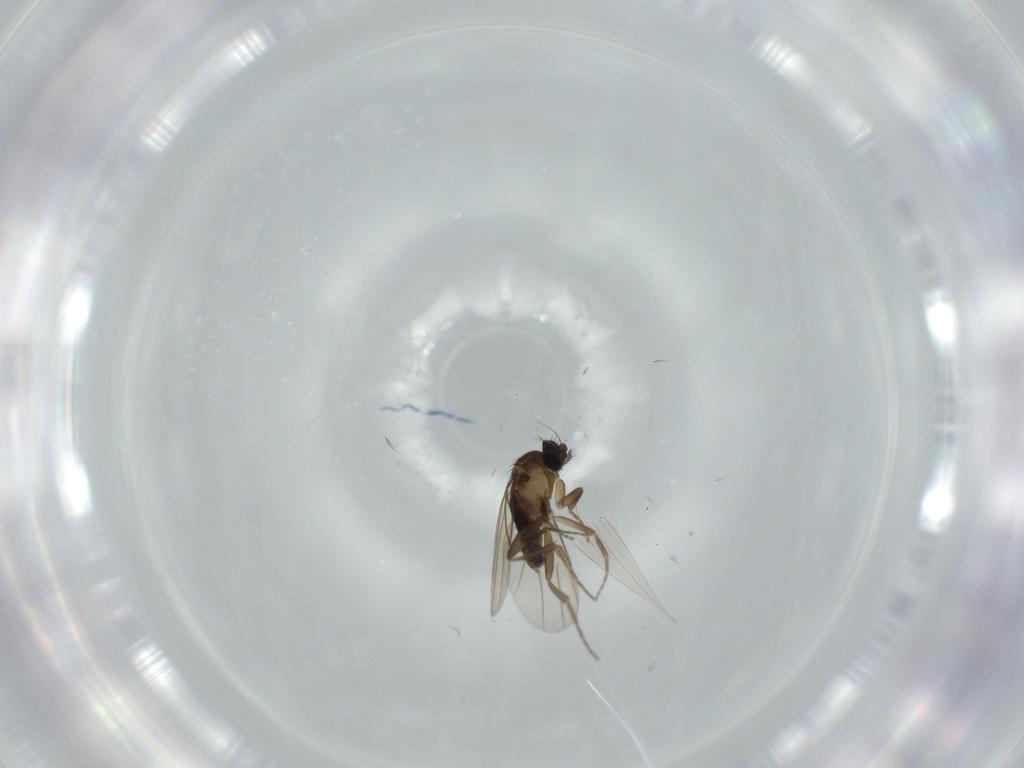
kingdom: Animalia
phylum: Arthropoda
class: Insecta
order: Diptera
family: Phoridae
